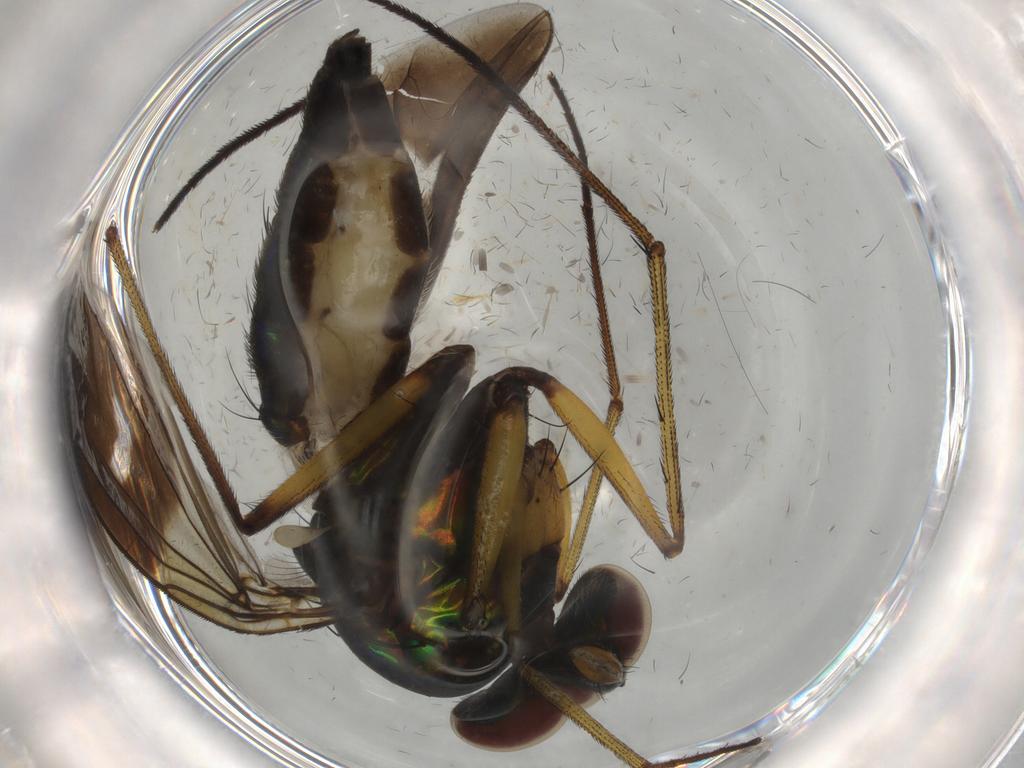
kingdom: Animalia
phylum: Arthropoda
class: Insecta
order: Diptera
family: Dolichopodidae
